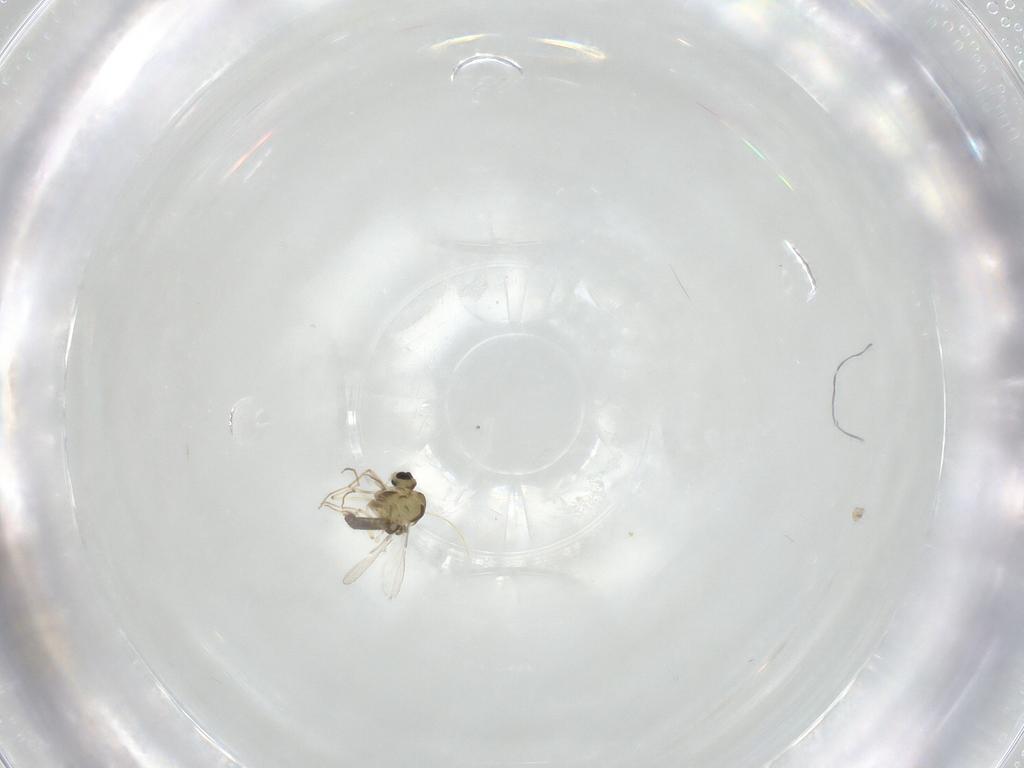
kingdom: Animalia
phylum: Arthropoda
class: Insecta
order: Diptera
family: Chironomidae
